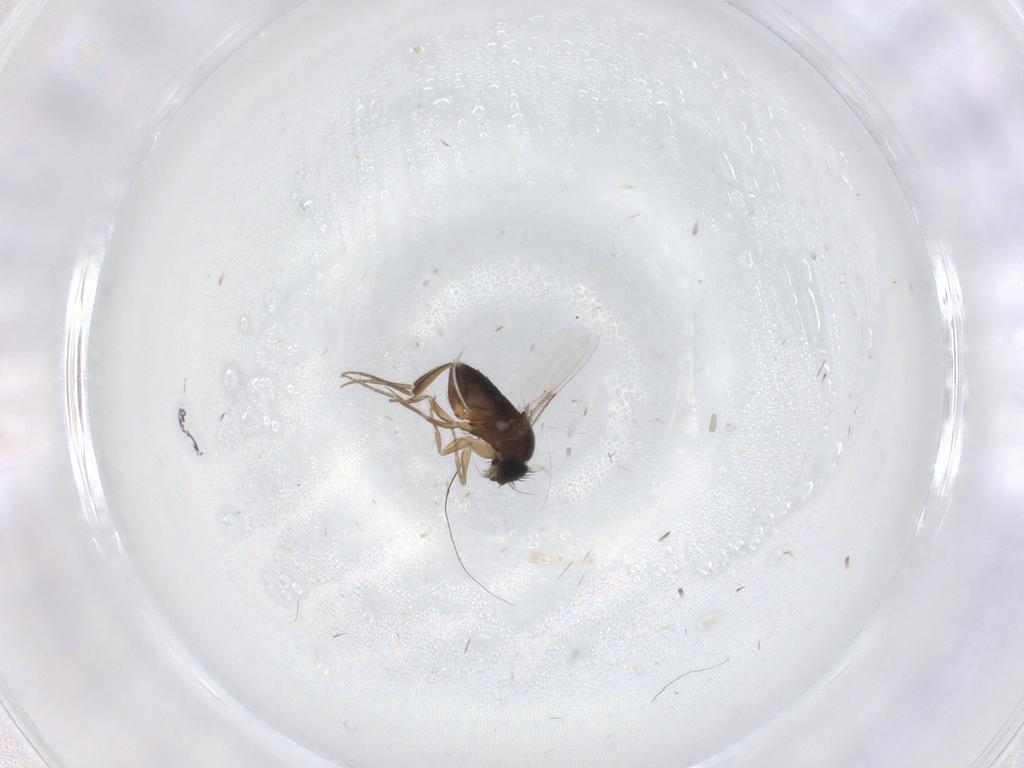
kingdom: Animalia
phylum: Arthropoda
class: Insecta
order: Diptera
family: Phoridae
